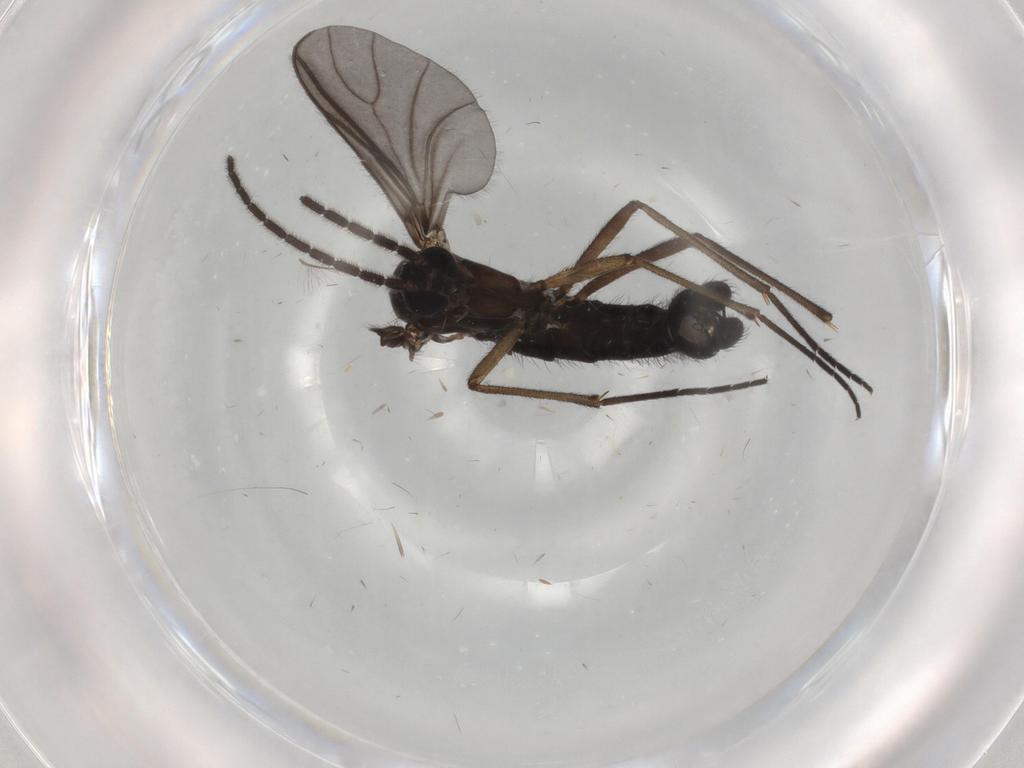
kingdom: Animalia
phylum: Arthropoda
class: Insecta
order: Diptera
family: Sciaridae
